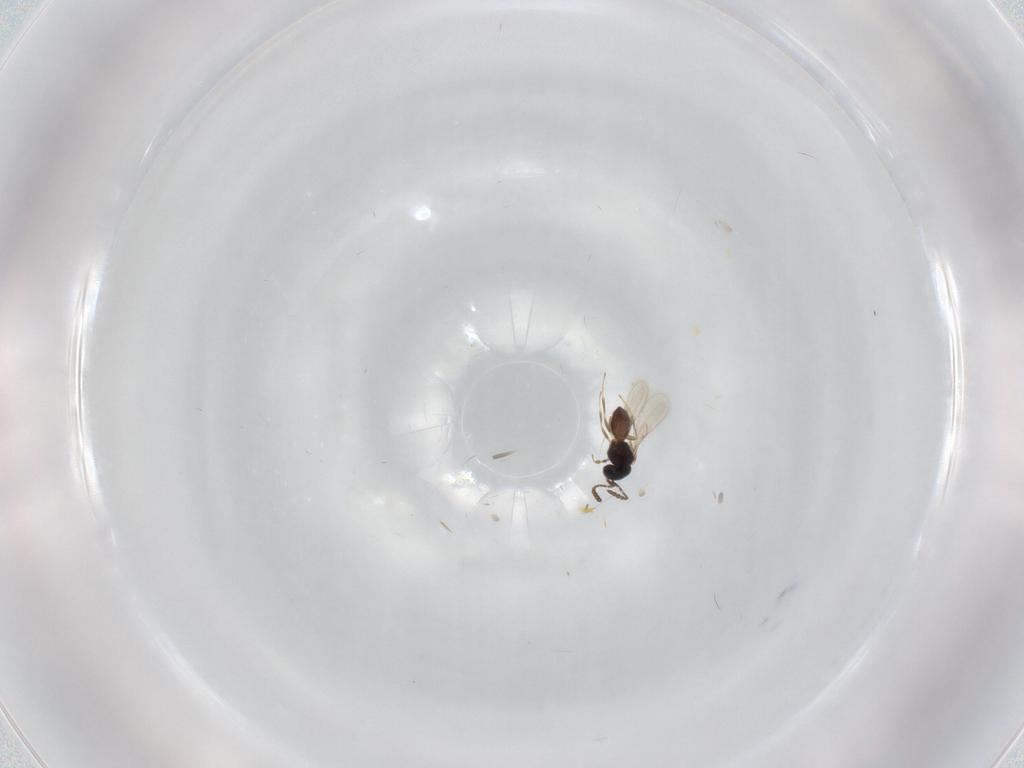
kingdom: Animalia
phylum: Arthropoda
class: Insecta
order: Hymenoptera
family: Scelionidae
